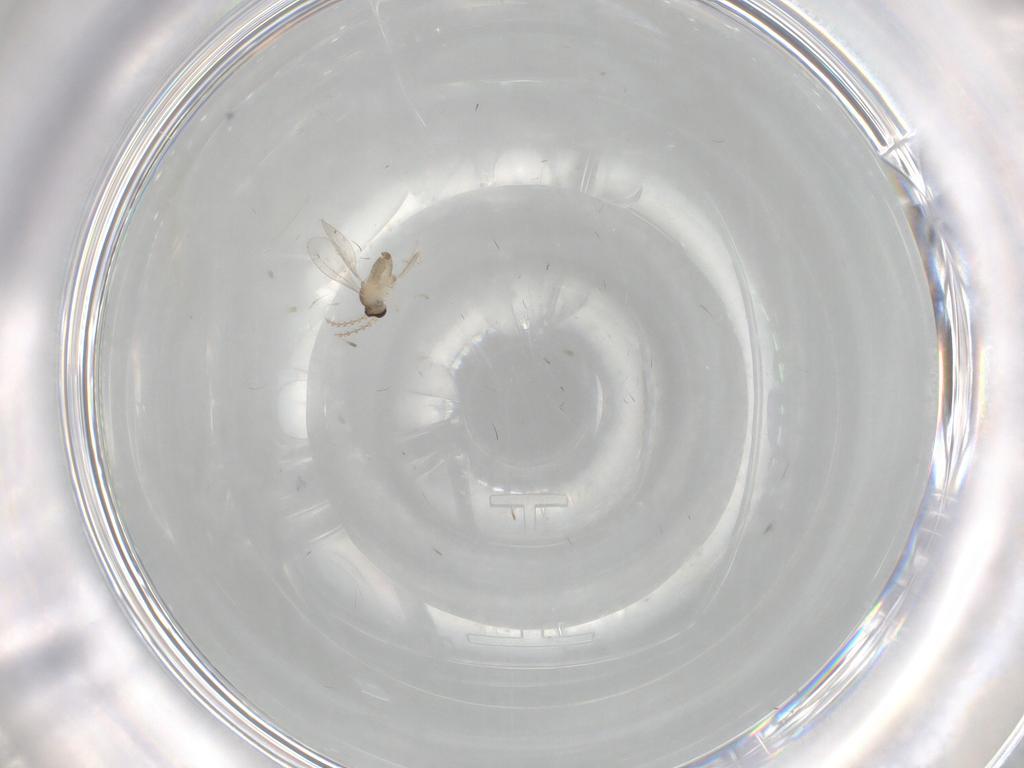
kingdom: Animalia
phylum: Arthropoda
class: Insecta
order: Diptera
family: Cecidomyiidae
